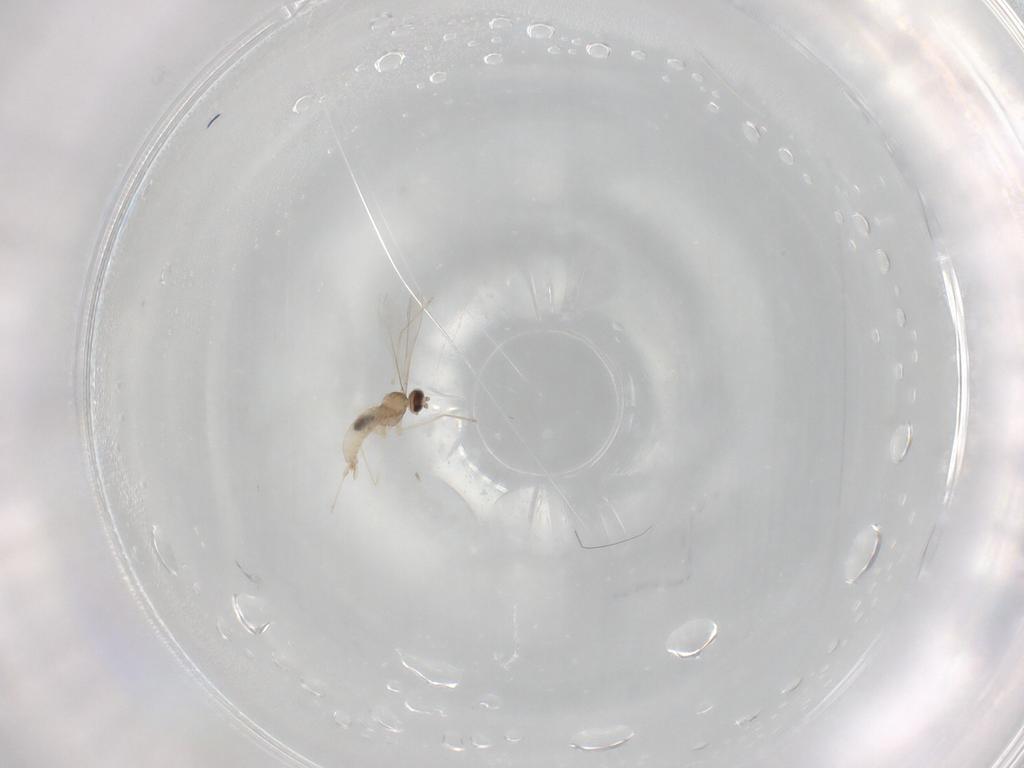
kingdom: Animalia
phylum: Arthropoda
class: Insecta
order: Diptera
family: Cecidomyiidae
